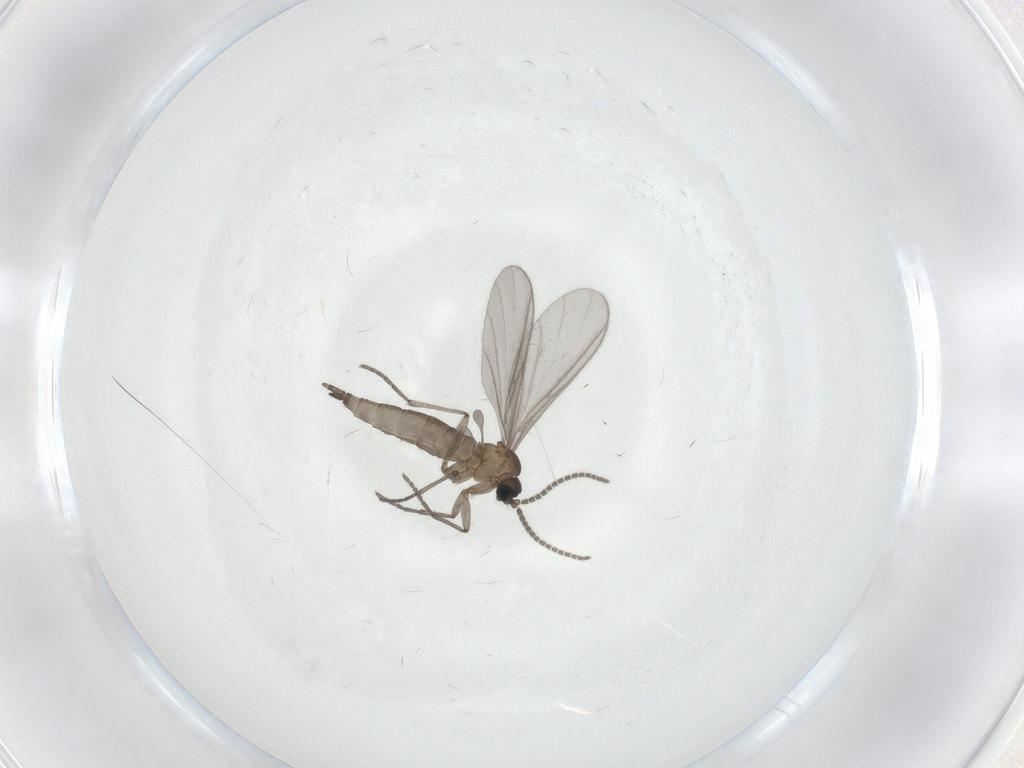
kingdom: Animalia
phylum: Arthropoda
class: Insecta
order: Diptera
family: Sciaridae
